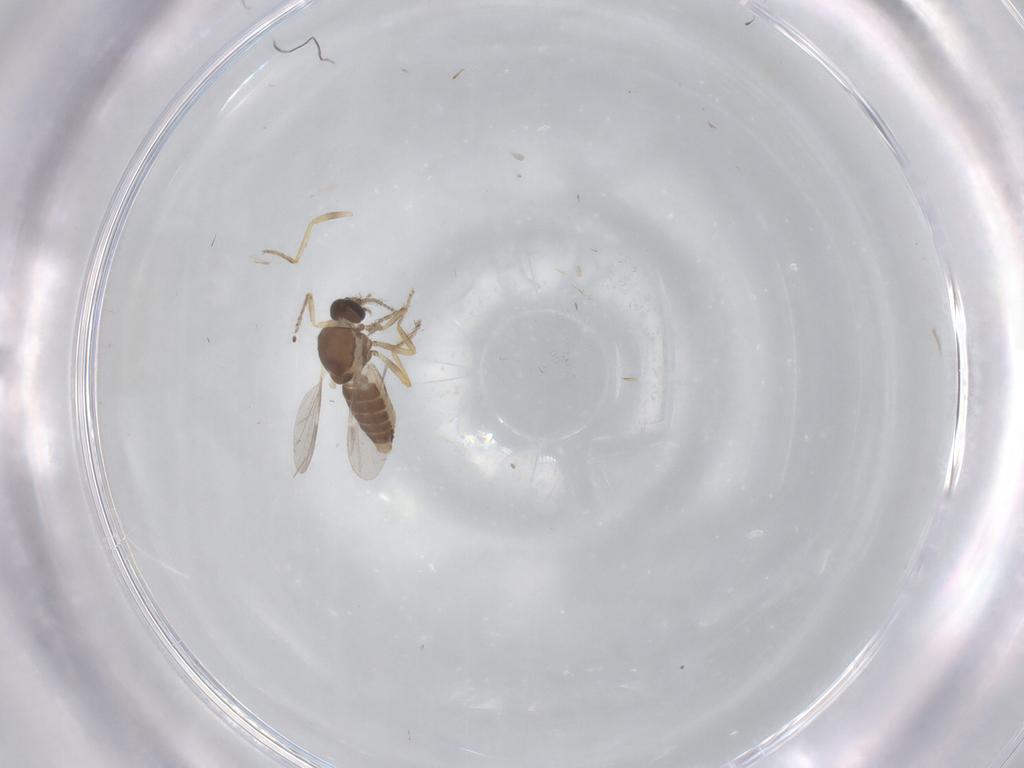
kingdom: Animalia
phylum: Arthropoda
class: Insecta
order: Diptera
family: Ceratopogonidae
